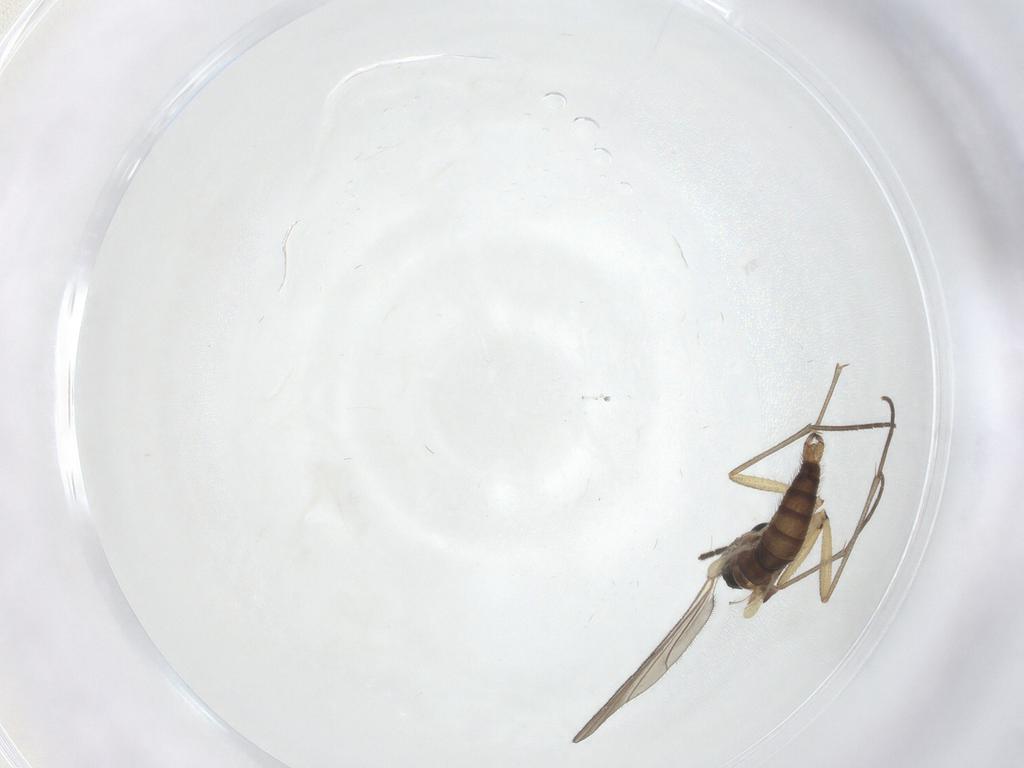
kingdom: Animalia
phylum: Arthropoda
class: Insecta
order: Diptera
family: Sciaridae
